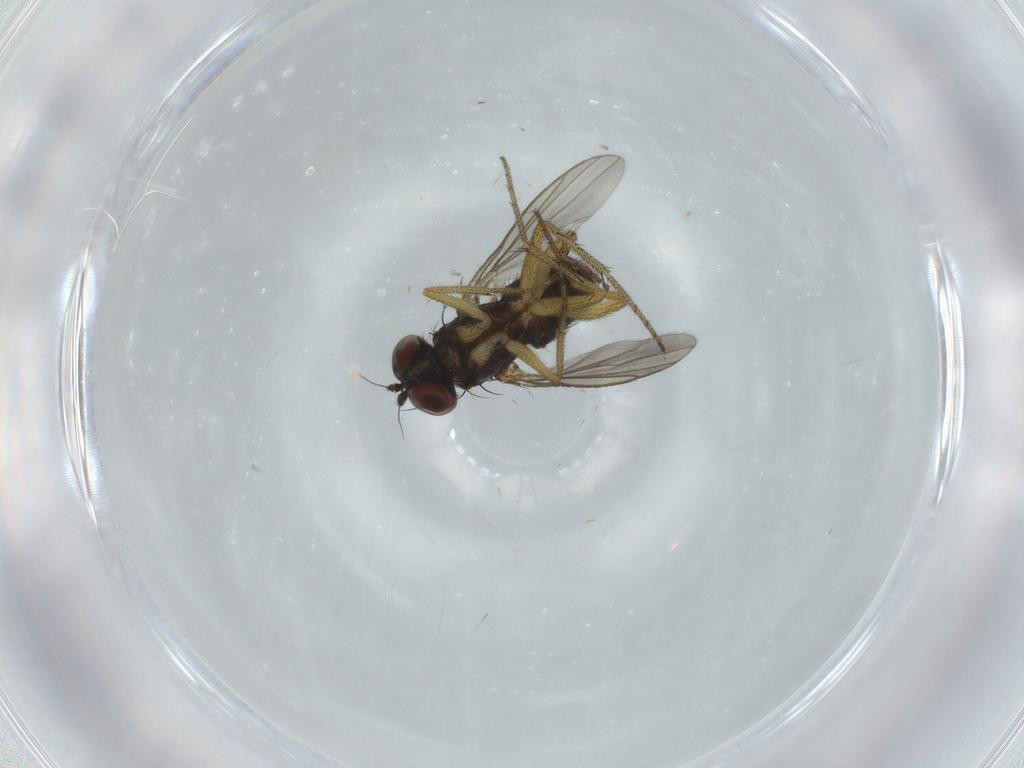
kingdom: Animalia
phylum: Arthropoda
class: Insecta
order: Diptera
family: Dolichopodidae
